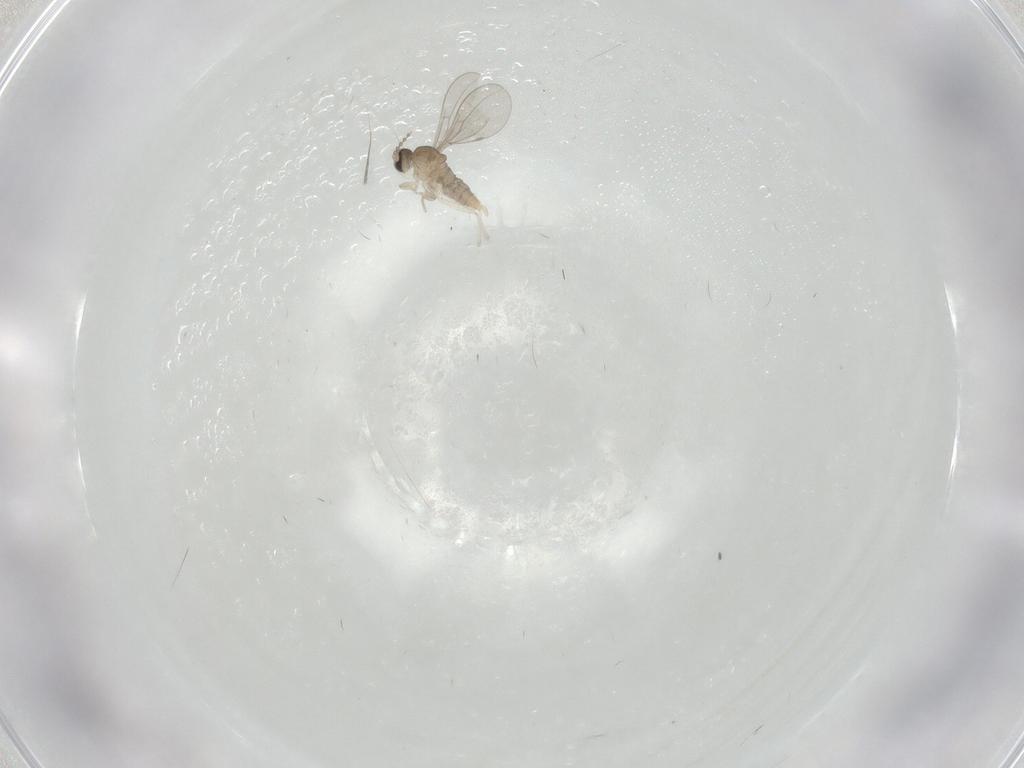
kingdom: Animalia
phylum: Arthropoda
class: Insecta
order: Diptera
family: Cecidomyiidae
